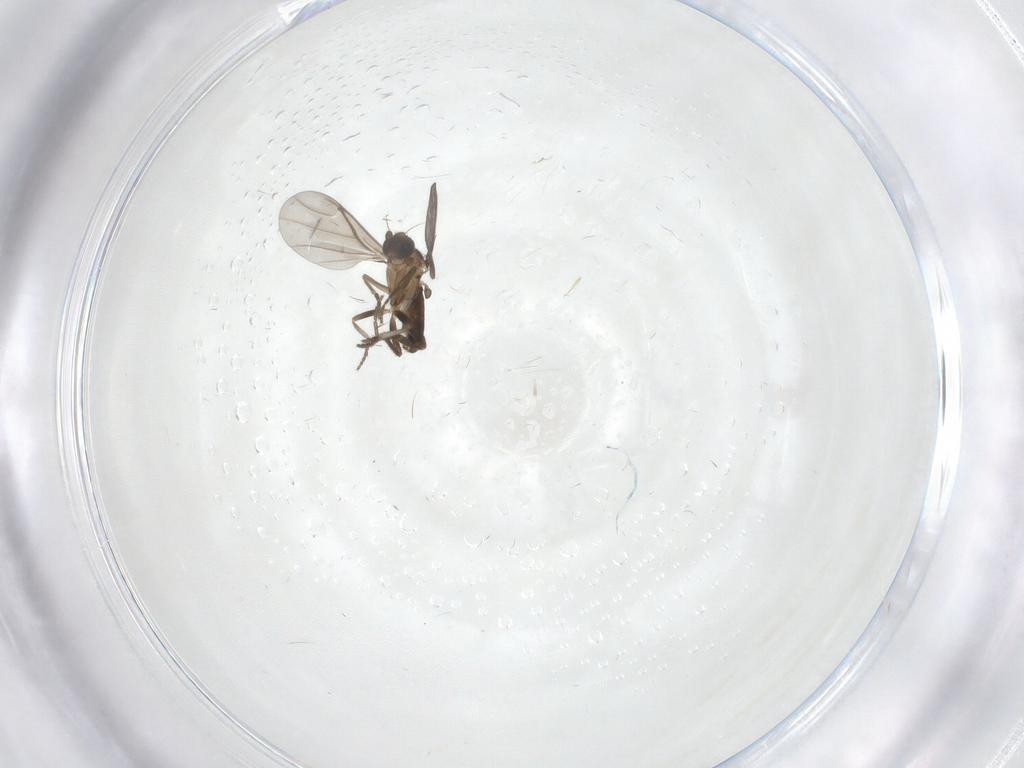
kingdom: Animalia
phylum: Arthropoda
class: Insecta
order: Diptera
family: Phoridae
